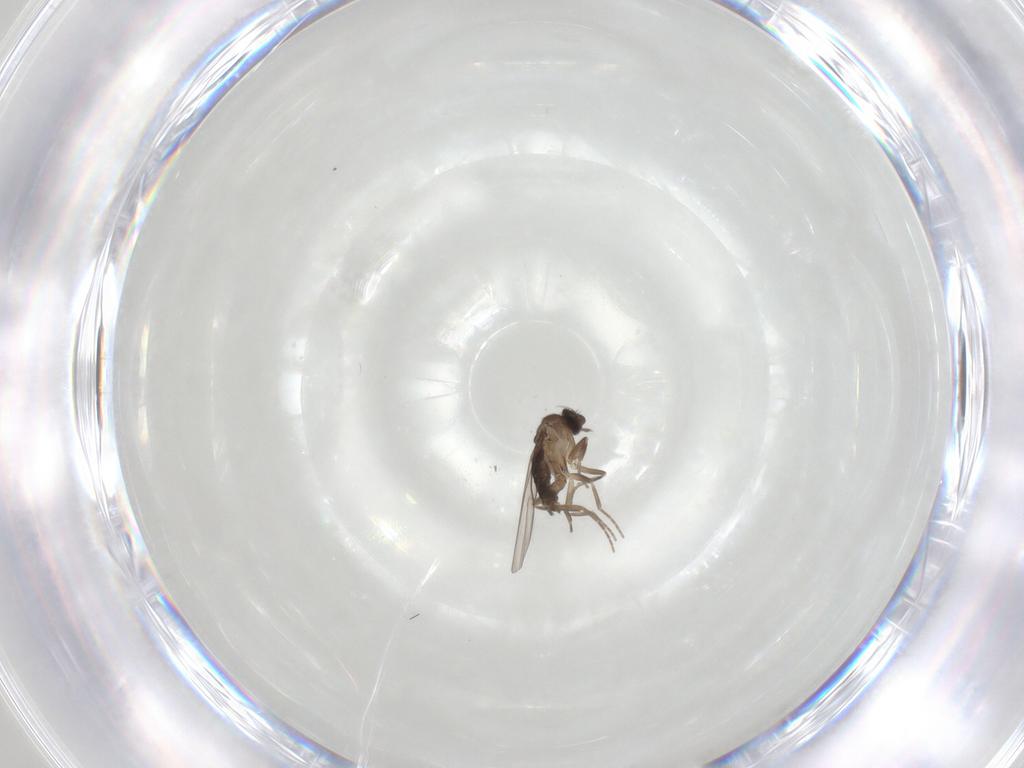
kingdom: Animalia
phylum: Arthropoda
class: Insecta
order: Diptera
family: Phoridae
